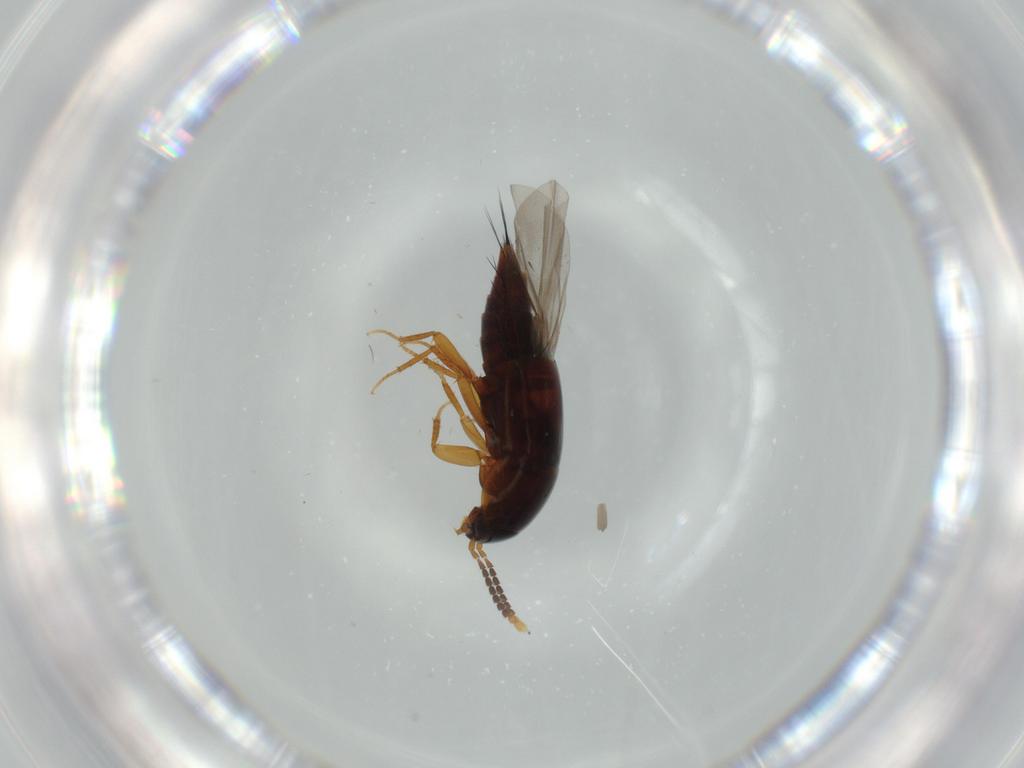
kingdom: Animalia
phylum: Arthropoda
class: Insecta
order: Coleoptera
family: Staphylinidae
